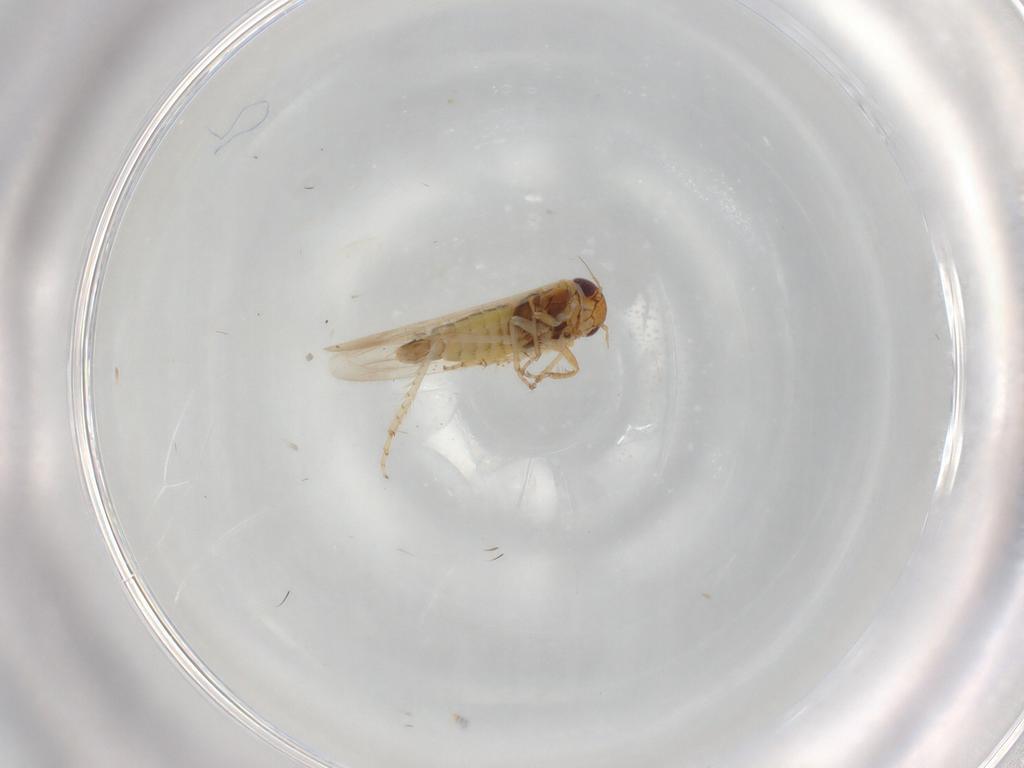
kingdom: Animalia
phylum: Arthropoda
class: Insecta
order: Hemiptera
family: Cicadellidae
